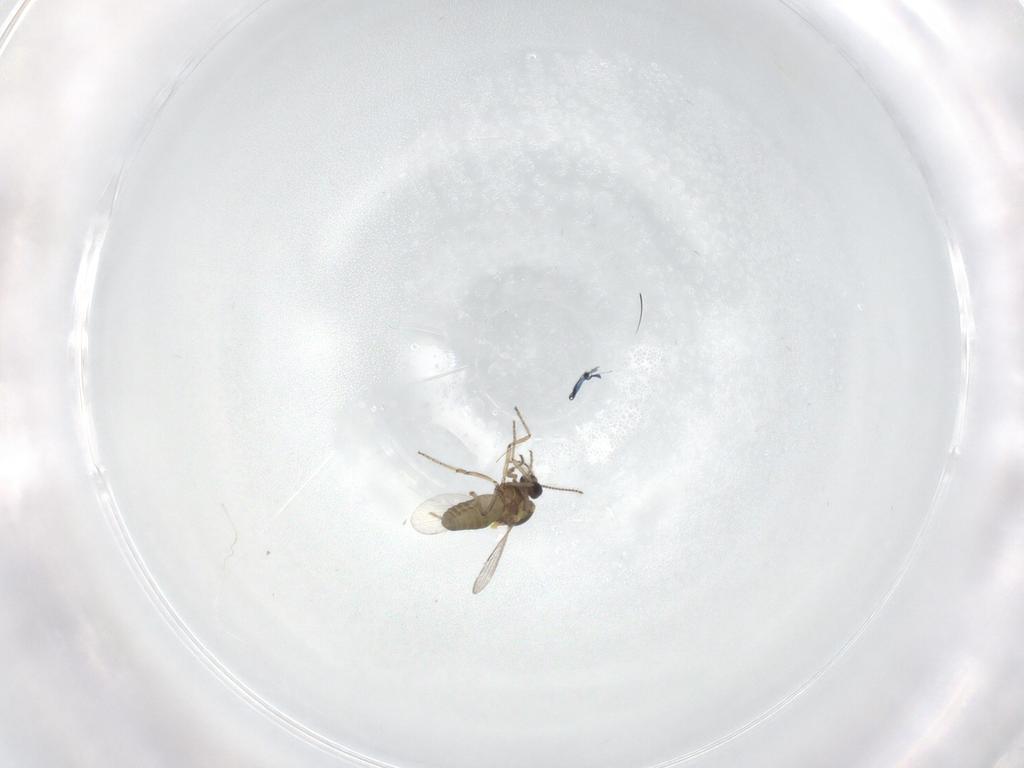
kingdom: Animalia
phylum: Arthropoda
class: Insecta
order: Diptera
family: Ceratopogonidae
